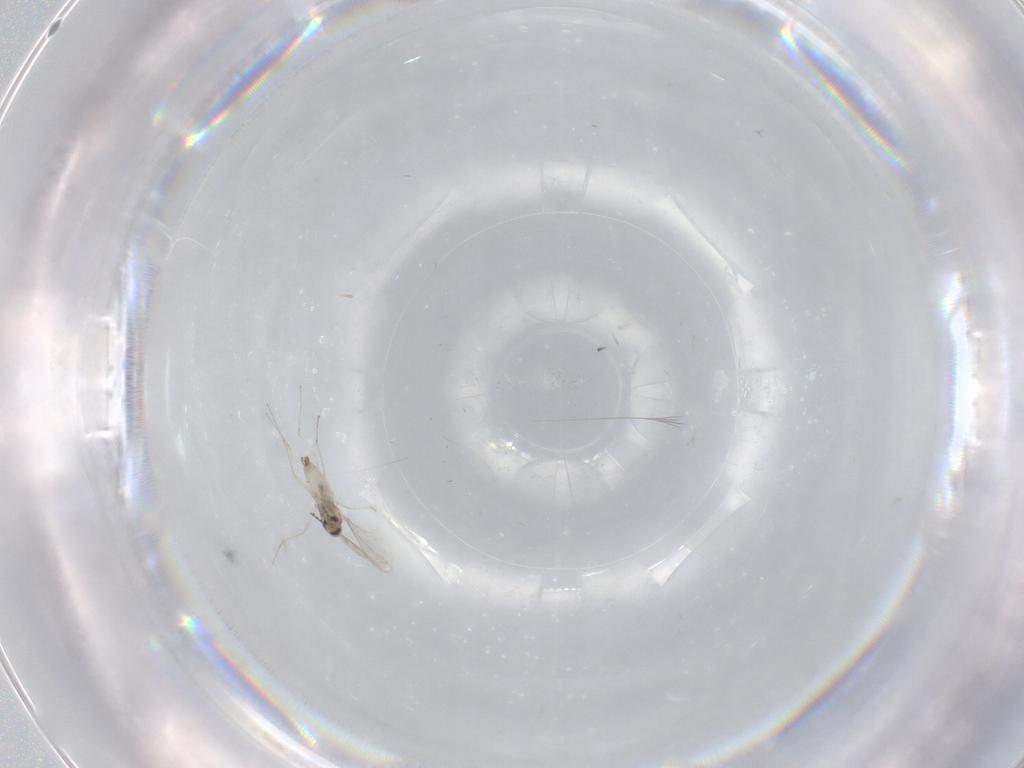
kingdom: Animalia
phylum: Arthropoda
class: Insecta
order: Diptera
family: Cecidomyiidae
